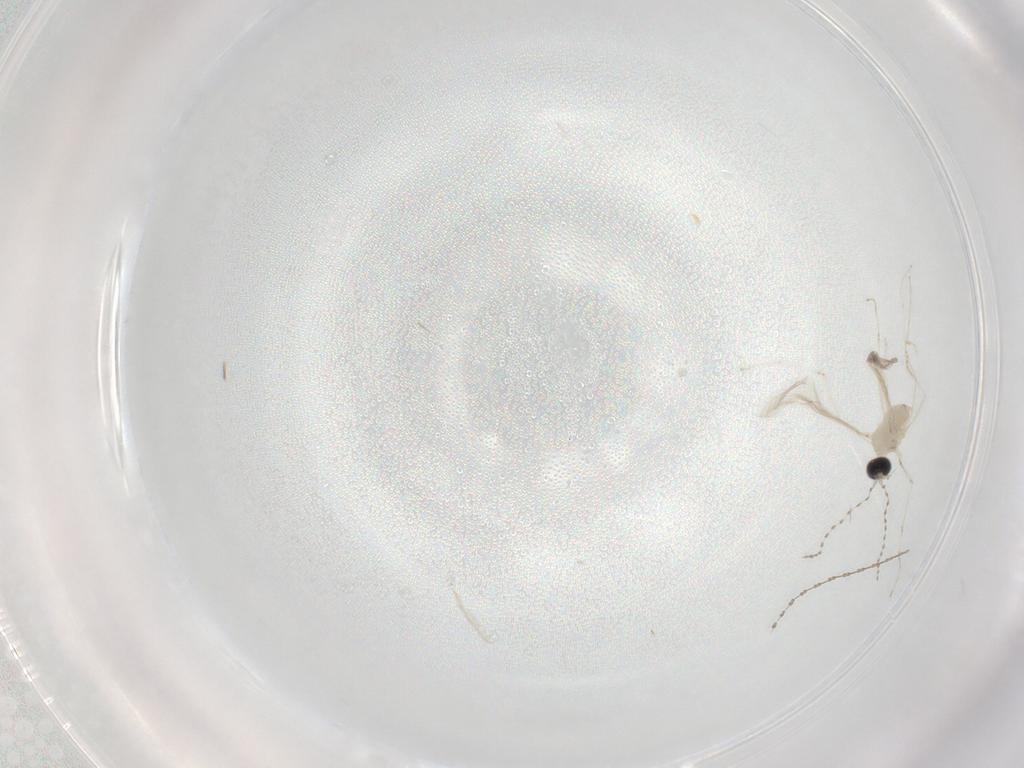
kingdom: Animalia
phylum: Arthropoda
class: Insecta
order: Diptera
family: Cecidomyiidae
